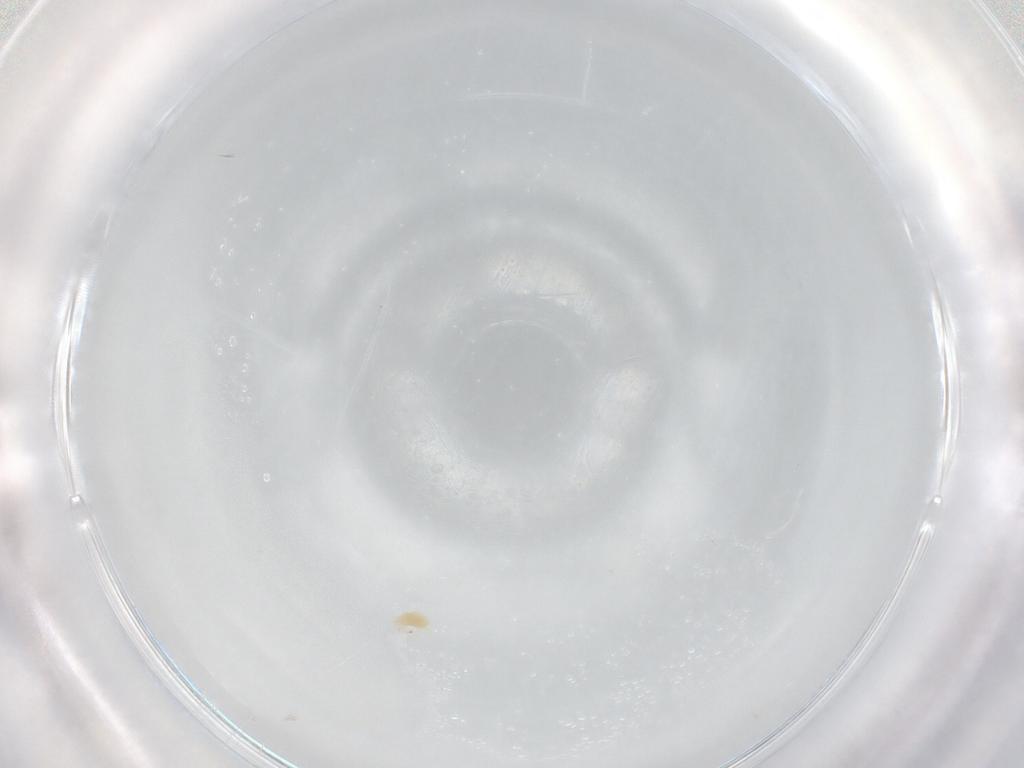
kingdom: Animalia
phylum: Arthropoda
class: Arachnida
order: Trombidiformes
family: Tetranychidae
